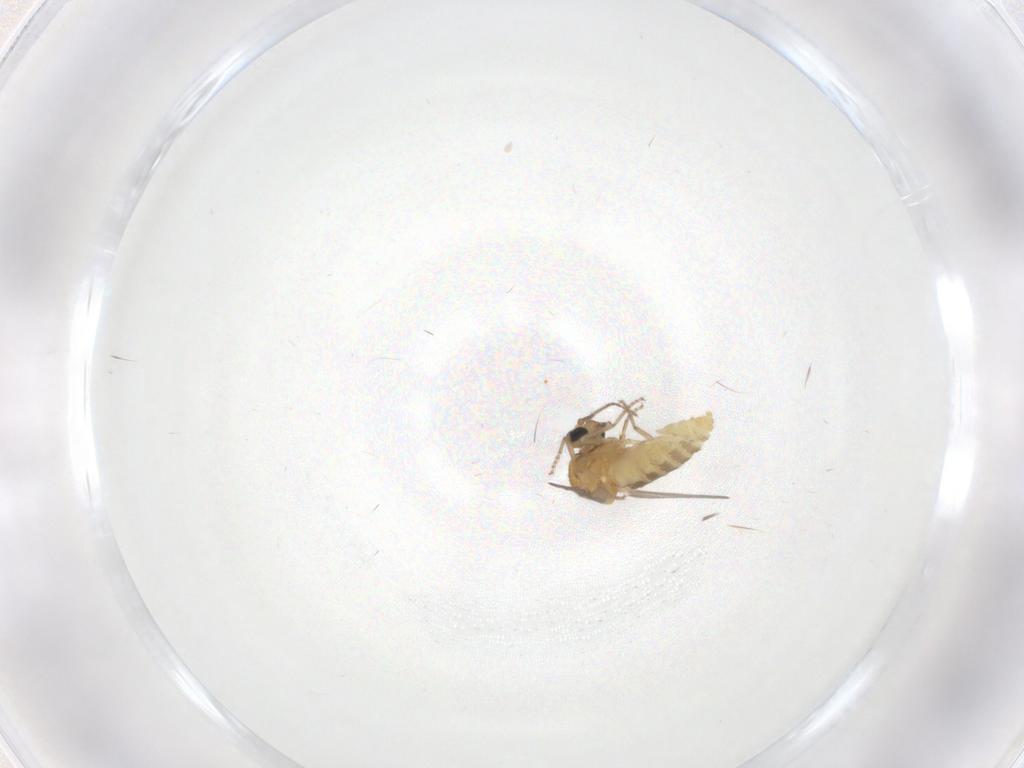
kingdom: Animalia
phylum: Arthropoda
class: Insecta
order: Diptera
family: Ceratopogonidae
